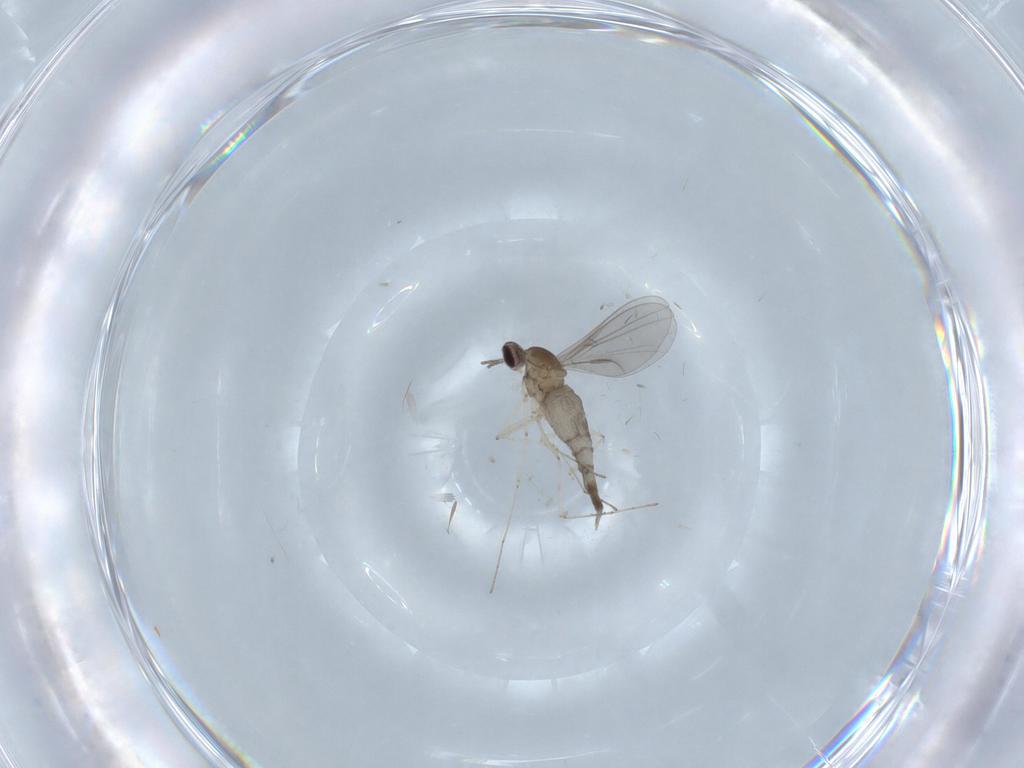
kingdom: Animalia
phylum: Arthropoda
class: Insecta
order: Diptera
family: Cecidomyiidae
